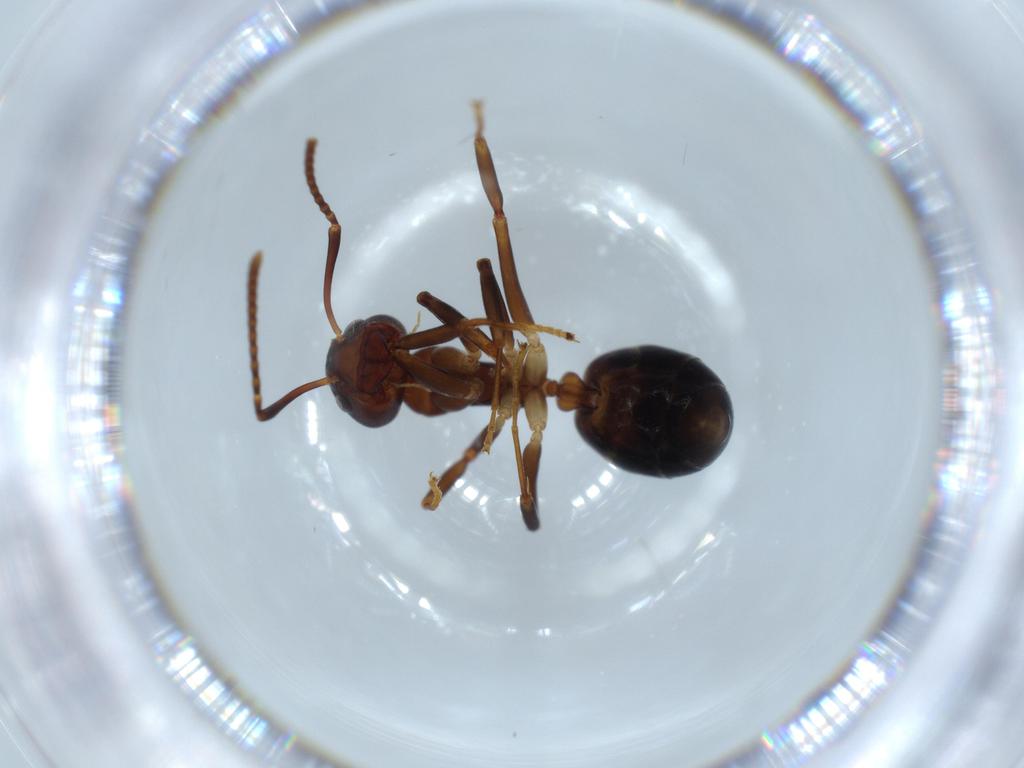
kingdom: Animalia
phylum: Arthropoda
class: Insecta
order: Hymenoptera
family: Formicidae
